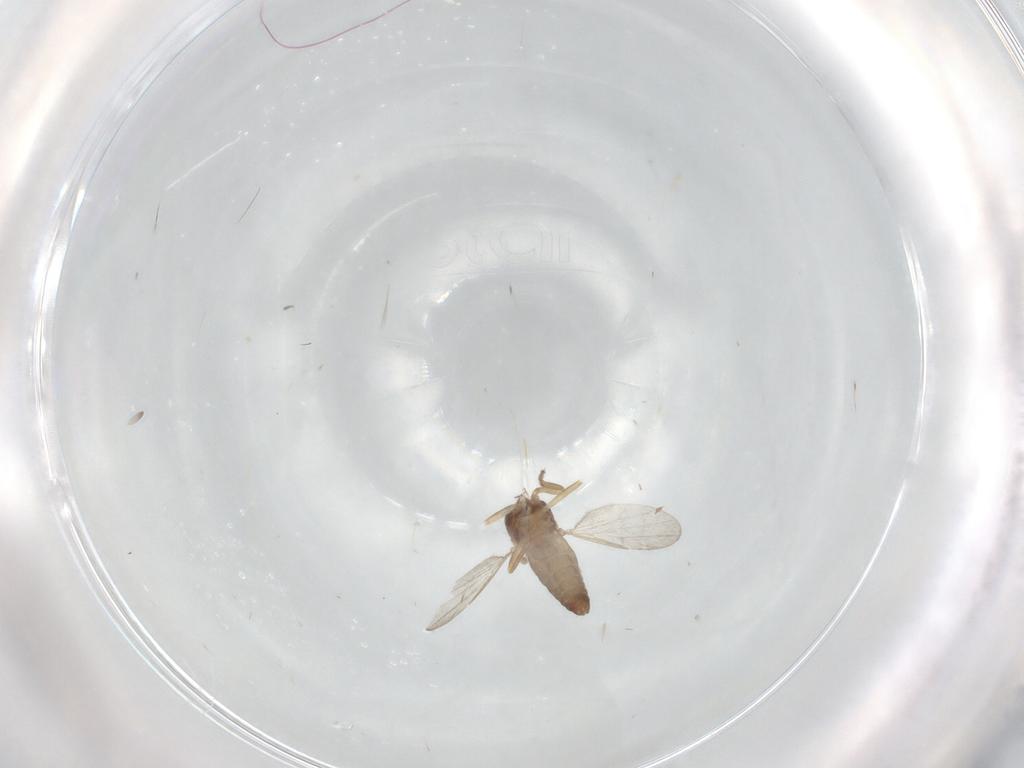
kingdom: Animalia
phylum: Arthropoda
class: Insecta
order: Diptera
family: Ceratopogonidae
